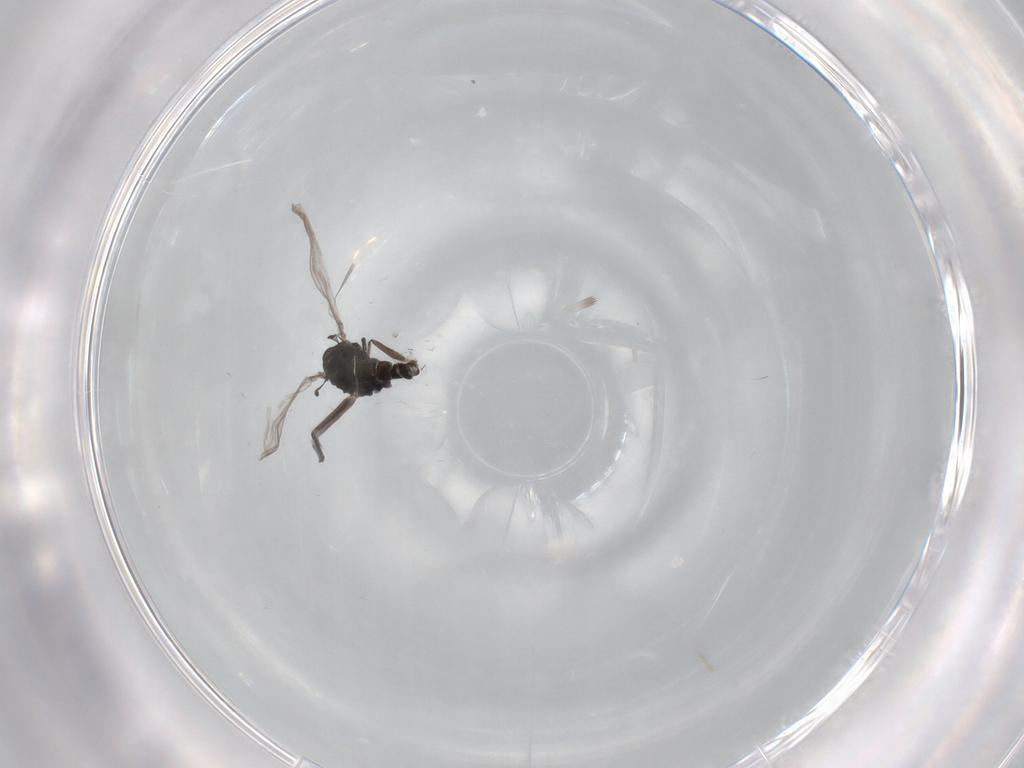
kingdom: Animalia
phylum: Arthropoda
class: Insecta
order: Diptera
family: Chironomidae
